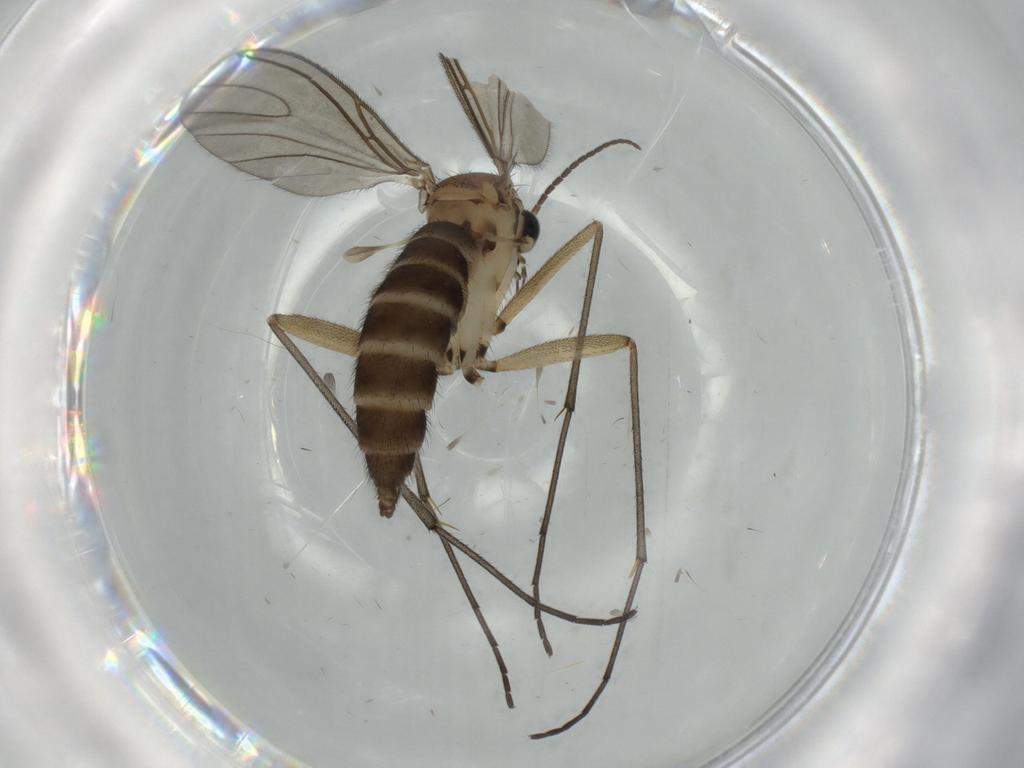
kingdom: Animalia
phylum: Arthropoda
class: Insecta
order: Diptera
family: Sciaridae
